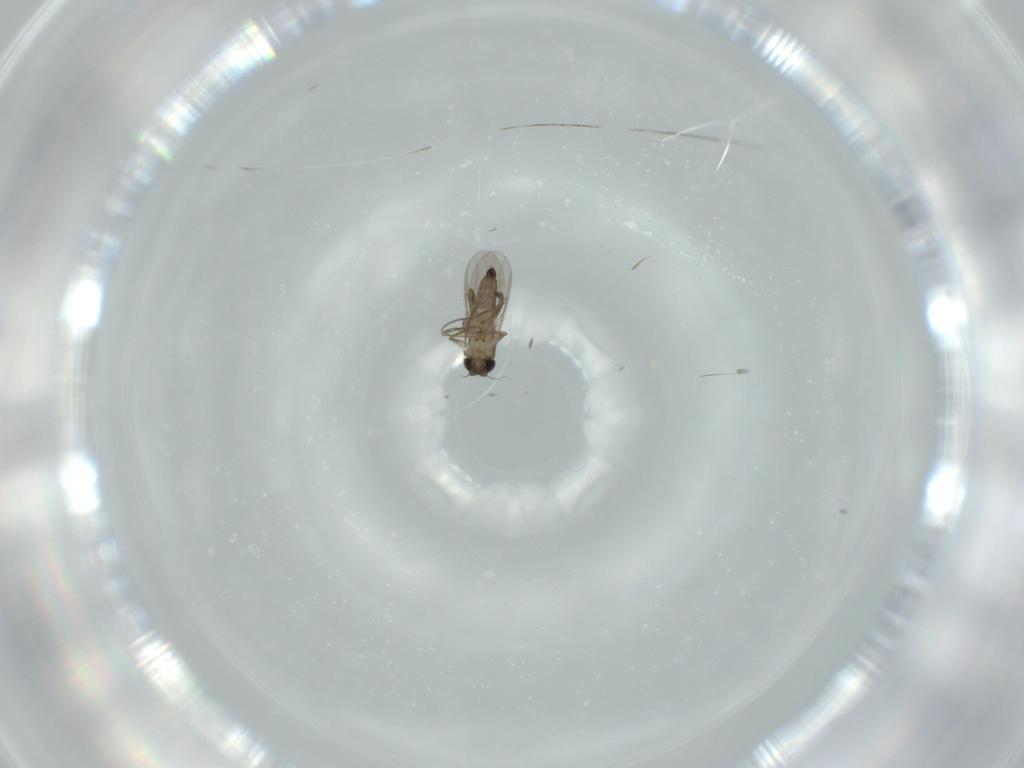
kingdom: Animalia
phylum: Arthropoda
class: Insecta
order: Diptera
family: Phoridae
